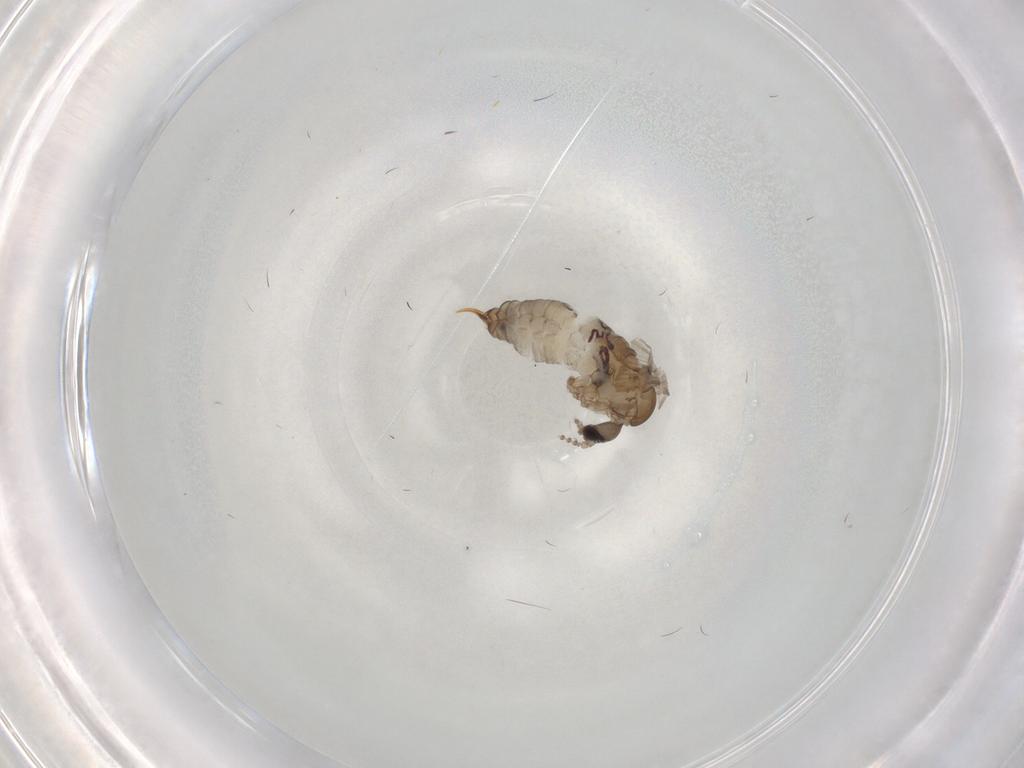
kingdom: Animalia
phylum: Arthropoda
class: Insecta
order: Diptera
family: Psychodidae
